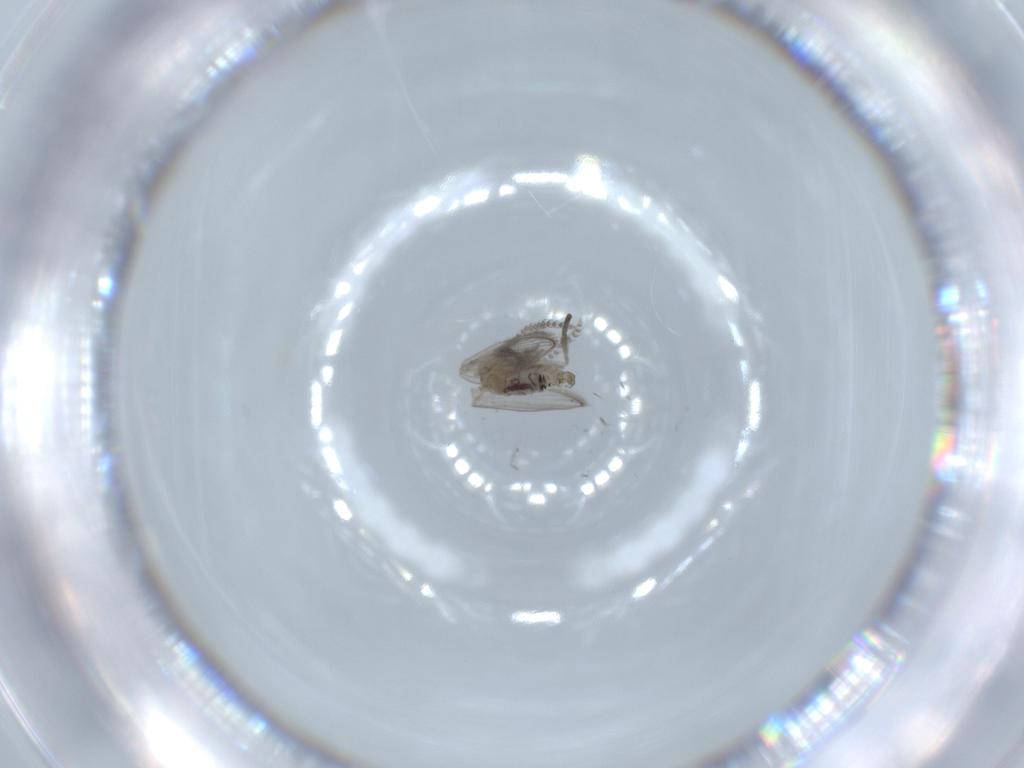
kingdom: Animalia
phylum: Arthropoda
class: Insecta
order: Diptera
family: Psychodidae
